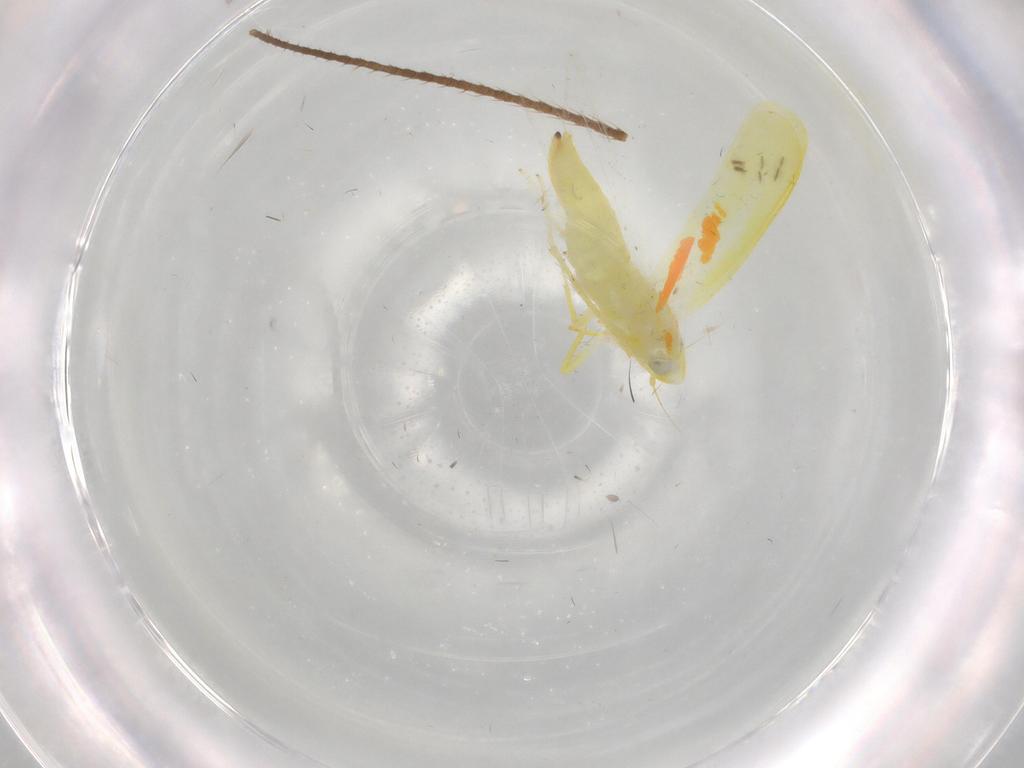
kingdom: Animalia
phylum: Arthropoda
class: Insecta
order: Hemiptera
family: Cicadellidae
